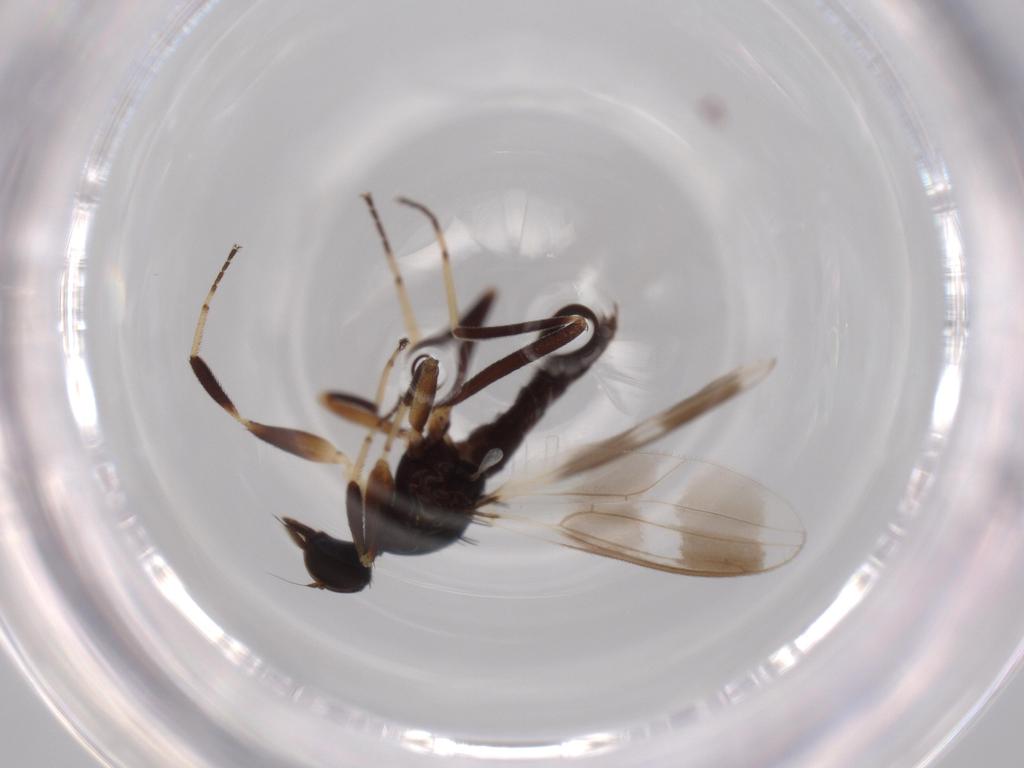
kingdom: Animalia
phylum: Arthropoda
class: Insecta
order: Diptera
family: Hybotidae
